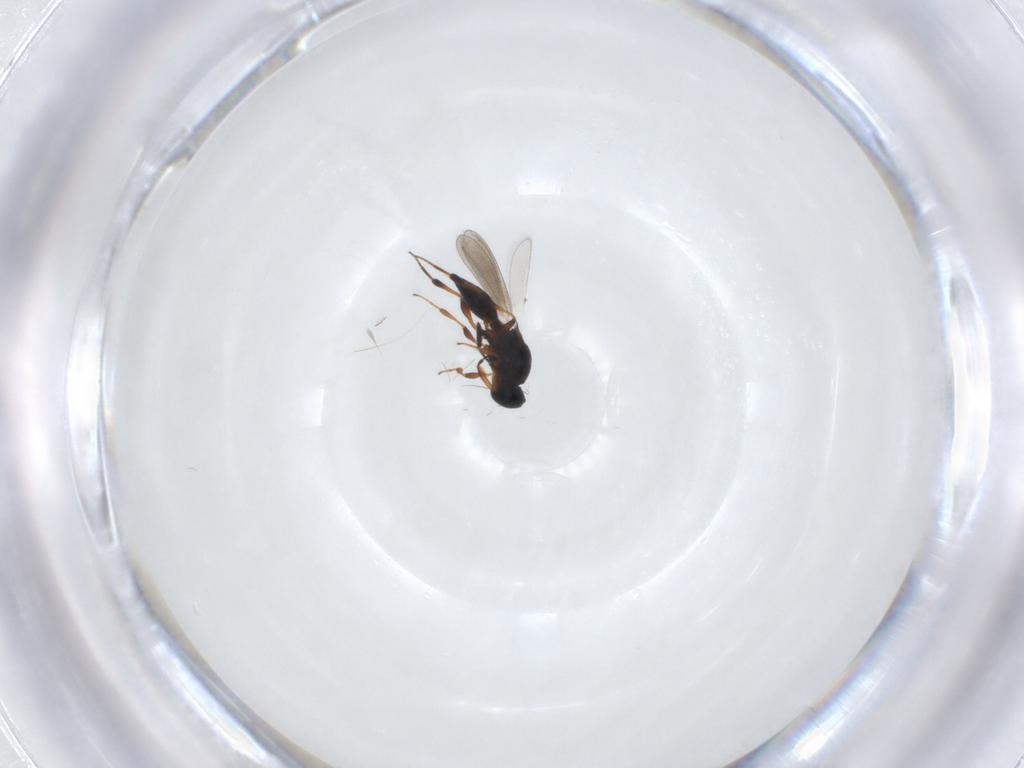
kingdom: Animalia
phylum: Arthropoda
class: Insecta
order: Hymenoptera
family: Platygastridae
